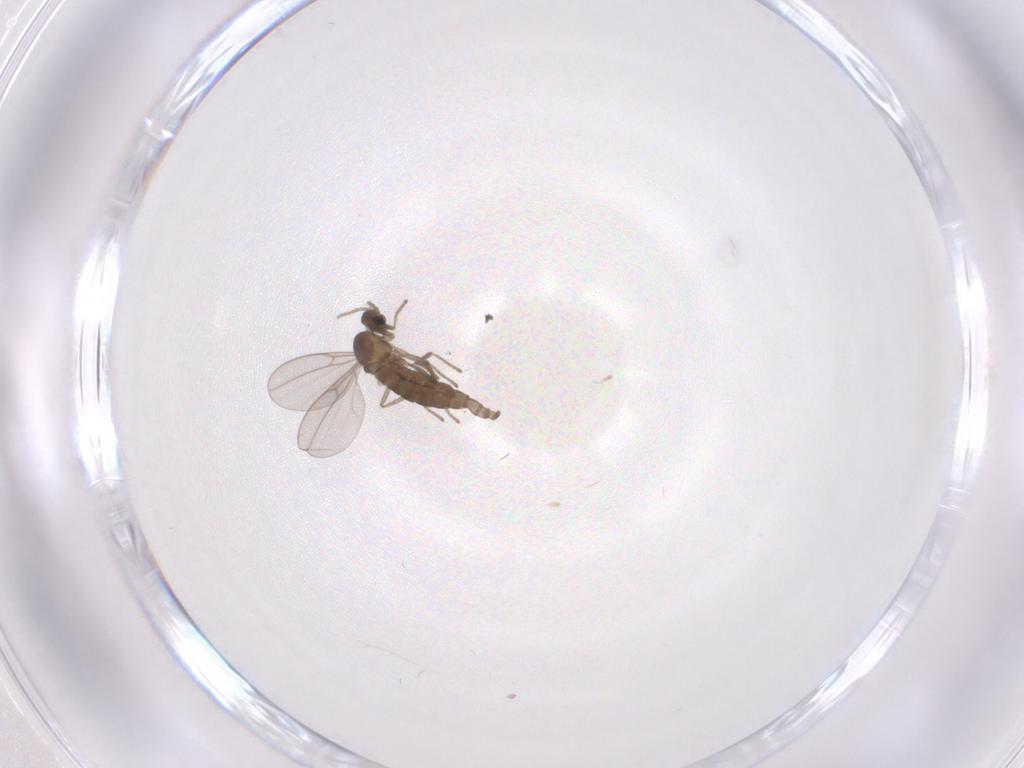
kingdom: Animalia
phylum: Arthropoda
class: Insecta
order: Diptera
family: Cecidomyiidae
